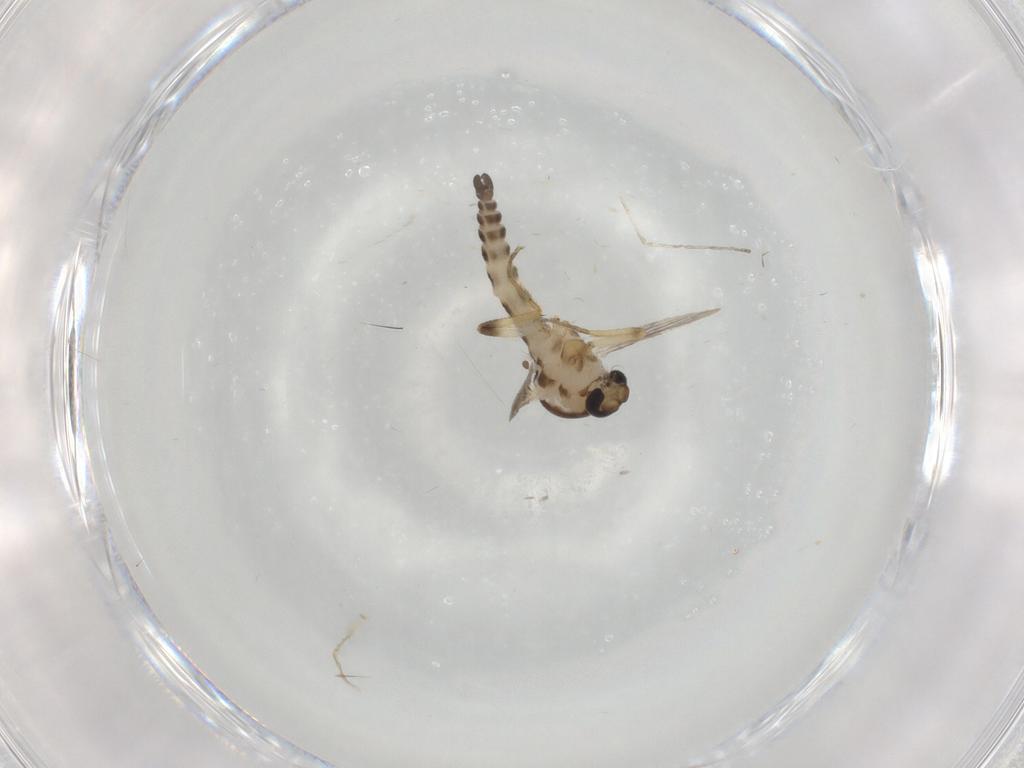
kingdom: Animalia
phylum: Arthropoda
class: Insecta
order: Diptera
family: Ceratopogonidae
